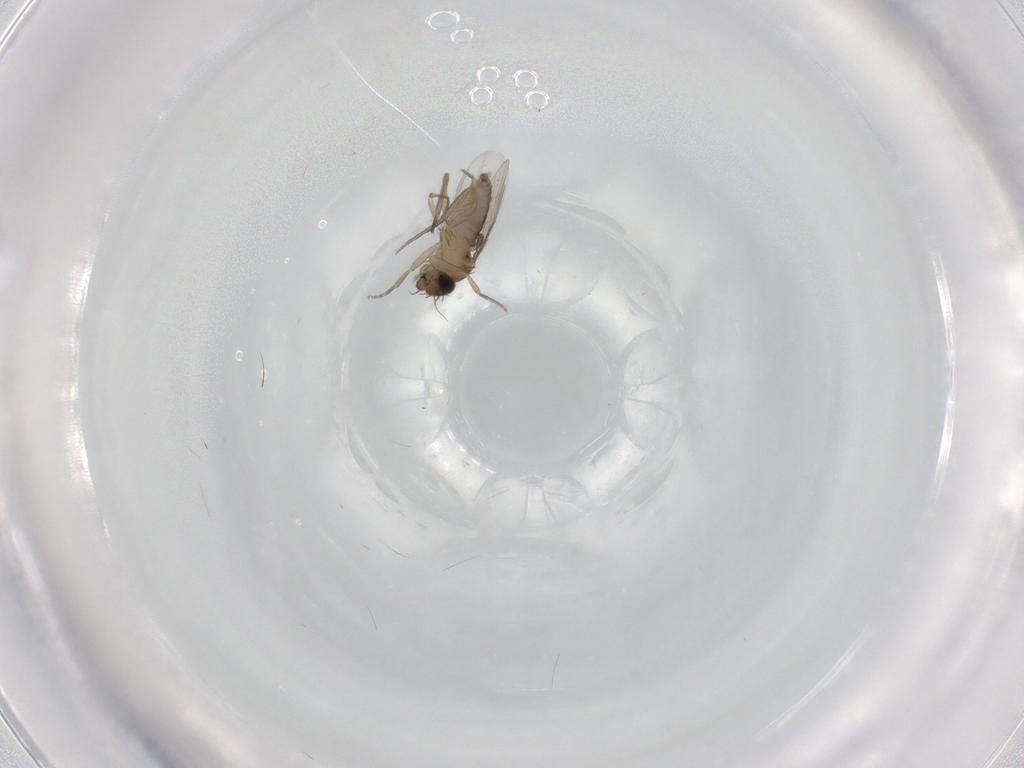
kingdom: Animalia
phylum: Arthropoda
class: Insecta
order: Diptera
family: Phoridae
